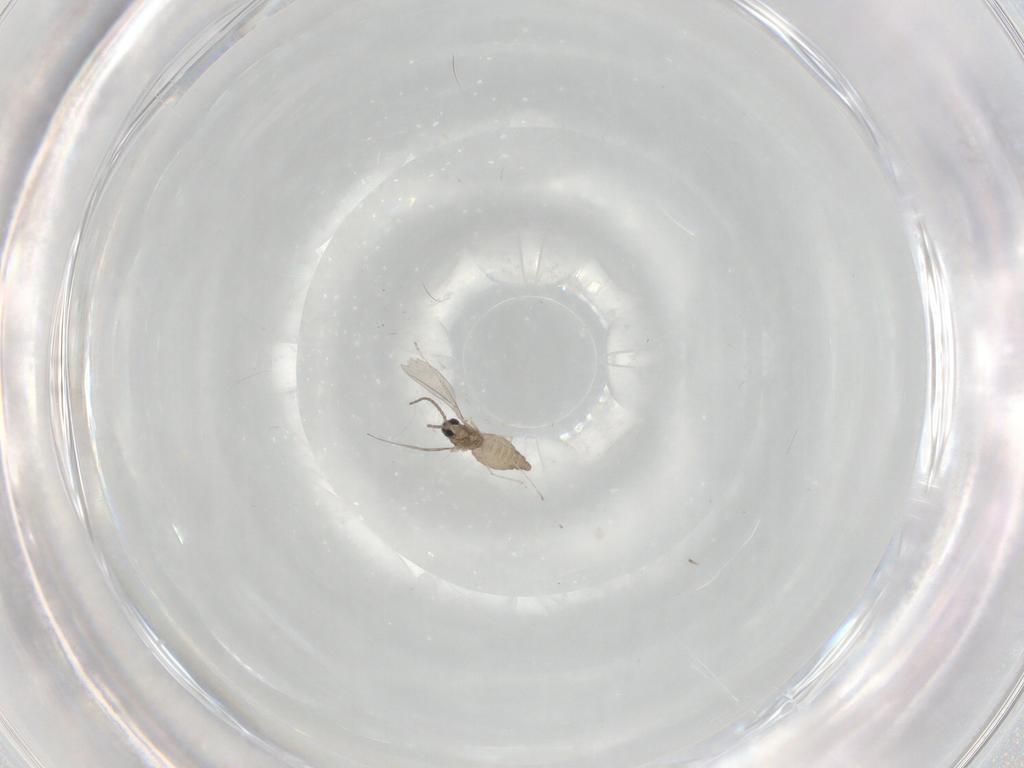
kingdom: Animalia
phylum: Arthropoda
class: Insecta
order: Diptera
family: Cecidomyiidae
